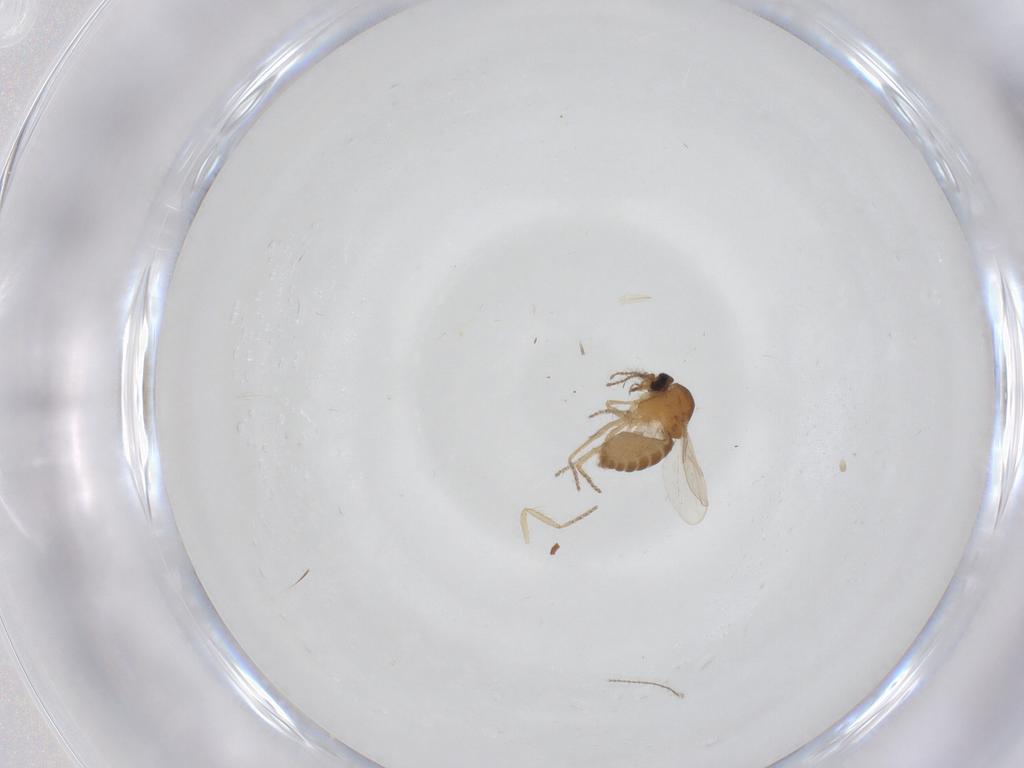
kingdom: Animalia
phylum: Arthropoda
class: Insecta
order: Diptera
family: Ceratopogonidae
